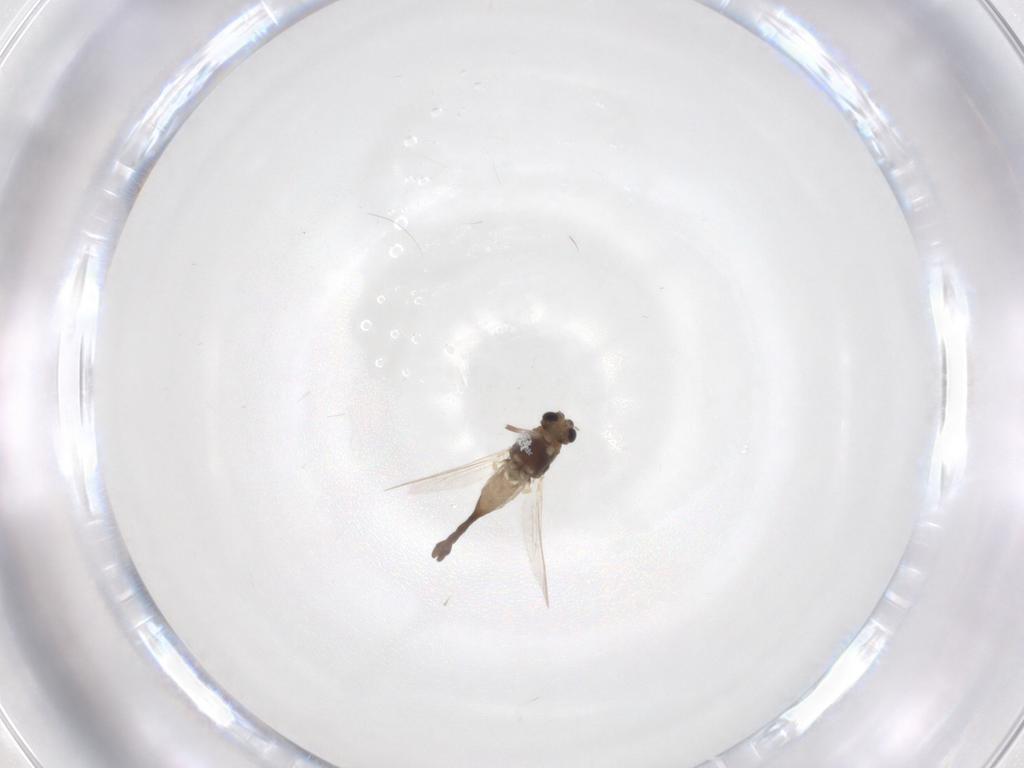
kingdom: Animalia
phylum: Arthropoda
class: Insecta
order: Diptera
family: Chironomidae
